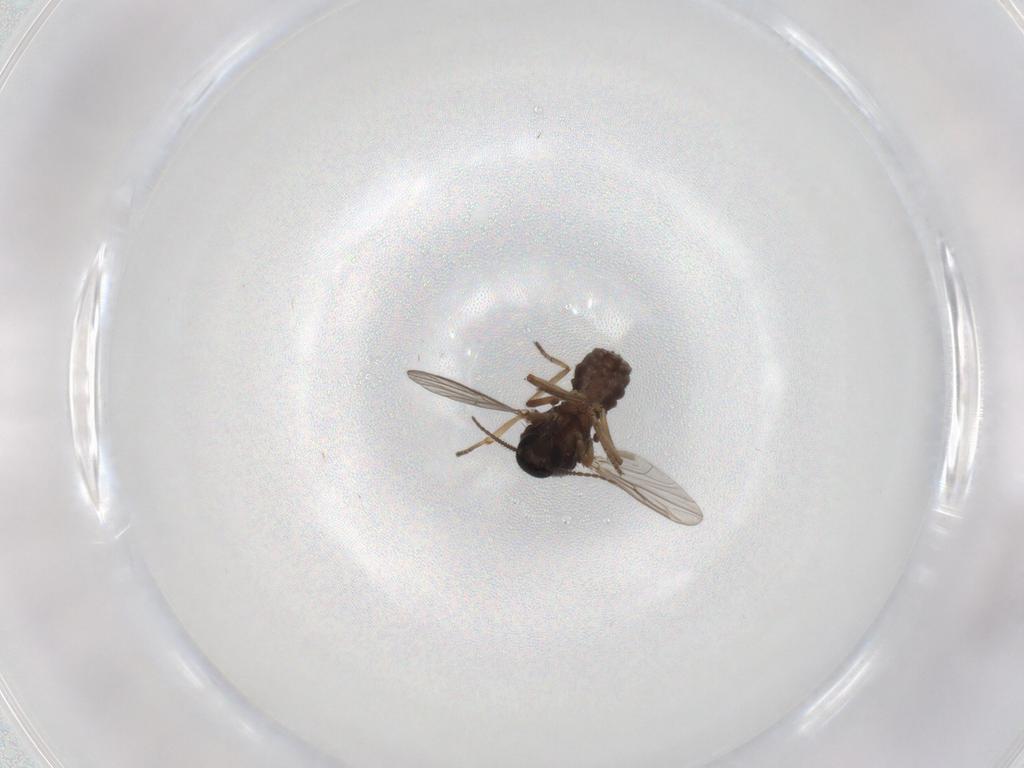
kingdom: Animalia
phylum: Arthropoda
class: Insecta
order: Diptera
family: Ceratopogonidae
